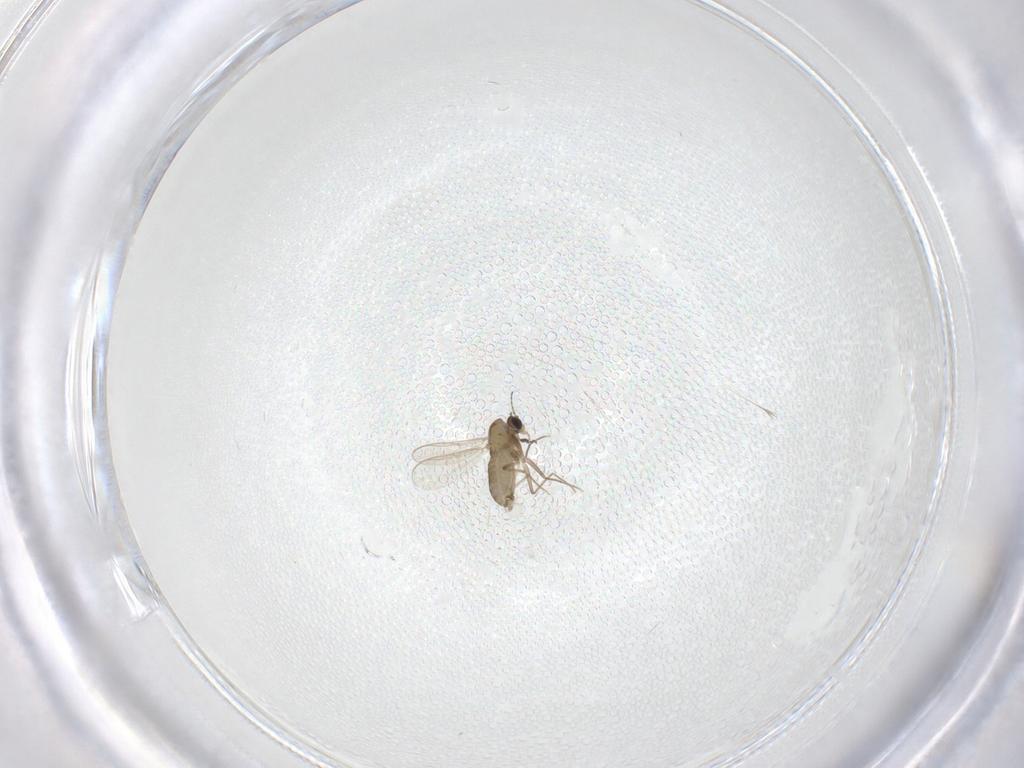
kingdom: Animalia
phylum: Arthropoda
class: Insecta
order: Diptera
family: Chironomidae
